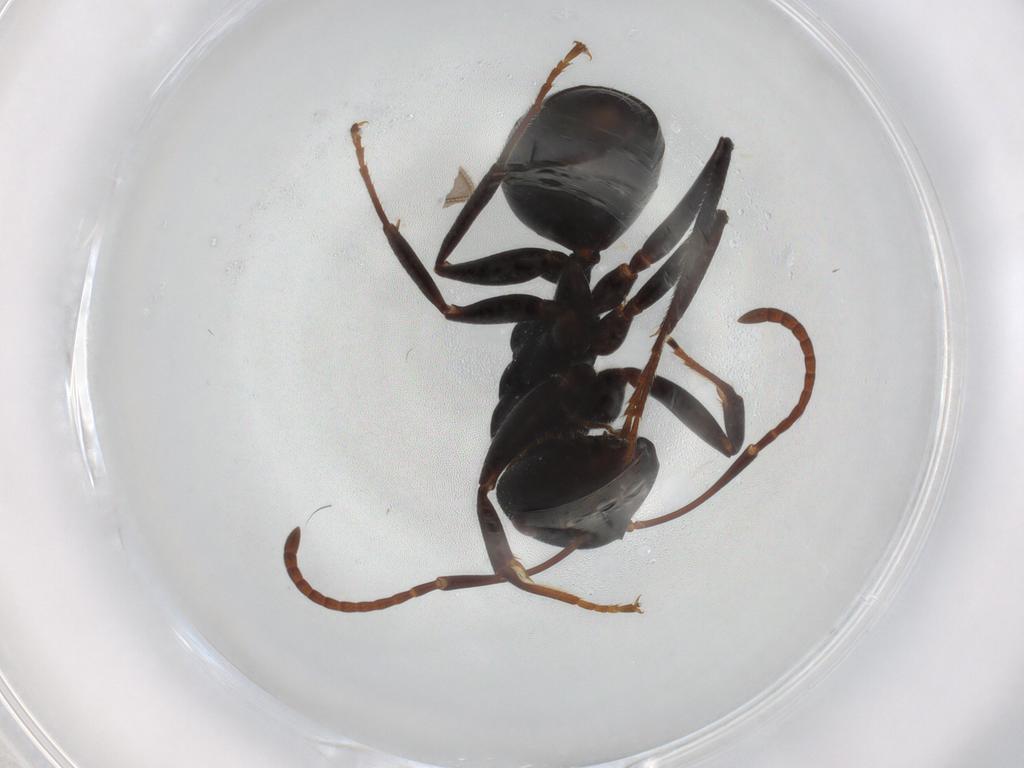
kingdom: Animalia
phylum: Arthropoda
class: Insecta
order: Hymenoptera
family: Formicidae
